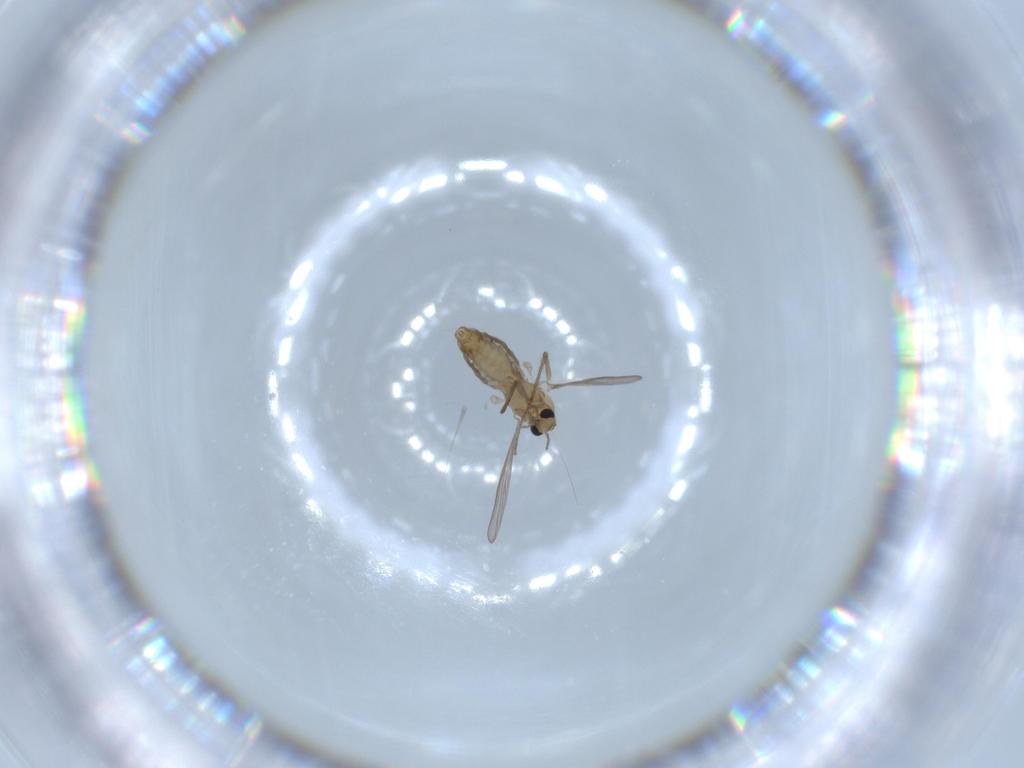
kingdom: Animalia
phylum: Arthropoda
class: Insecta
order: Diptera
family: Chironomidae
